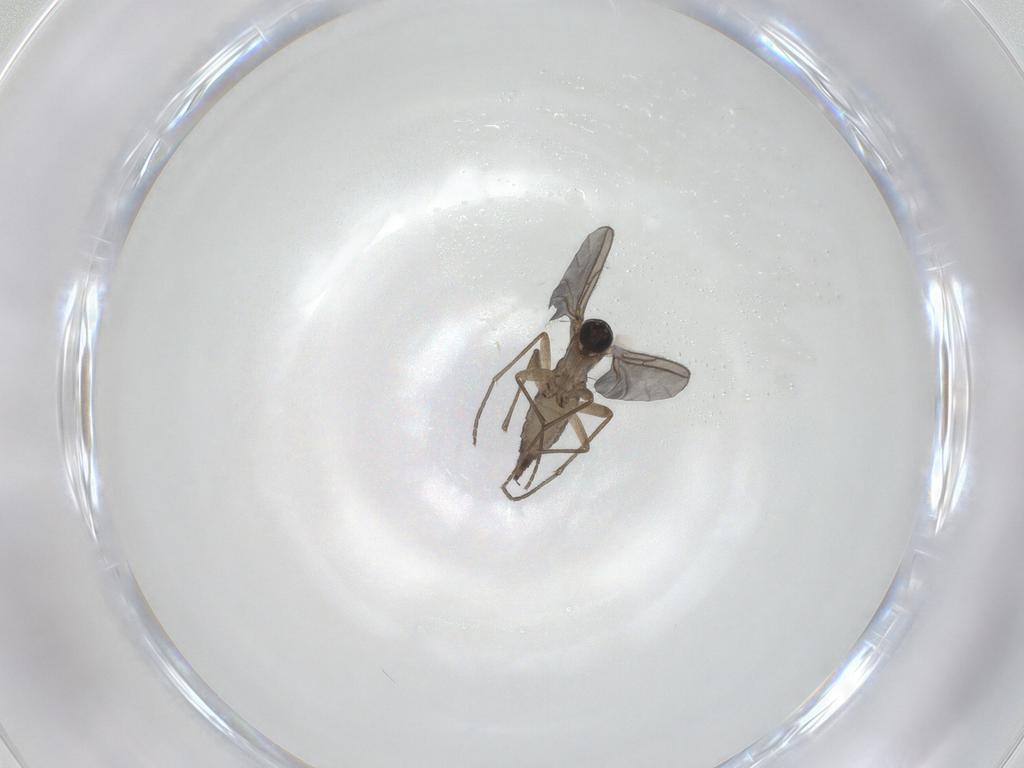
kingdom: Animalia
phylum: Arthropoda
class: Insecta
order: Diptera
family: Sciaridae
